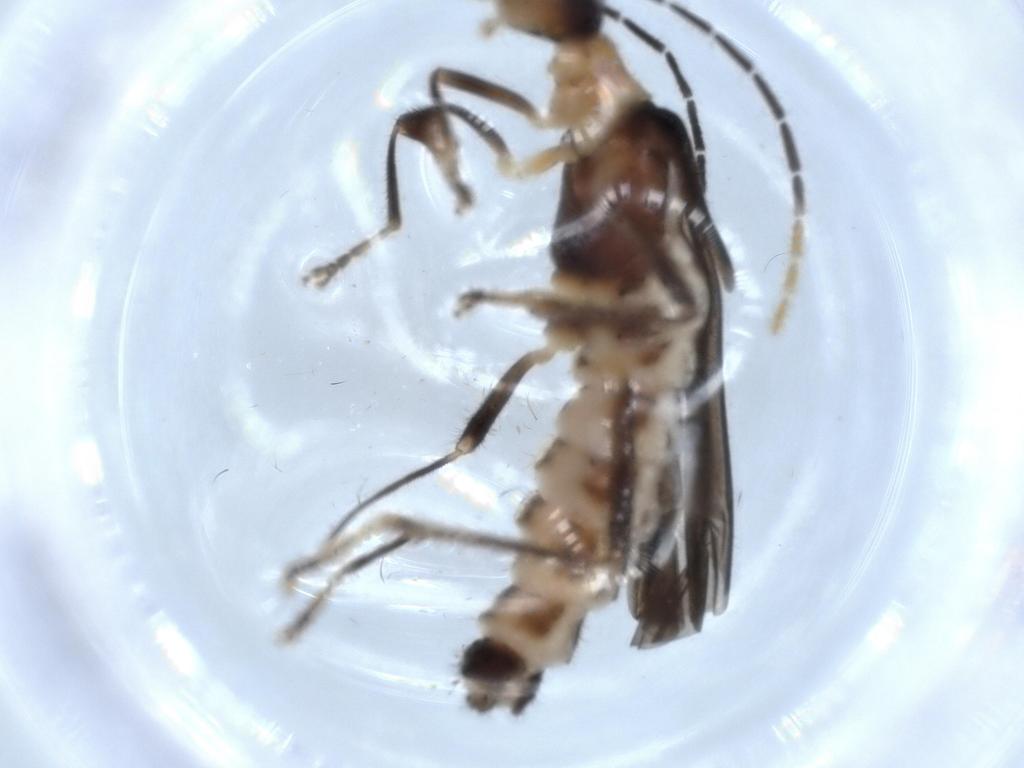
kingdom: Animalia
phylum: Arthropoda
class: Insecta
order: Coleoptera
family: Cantharidae
